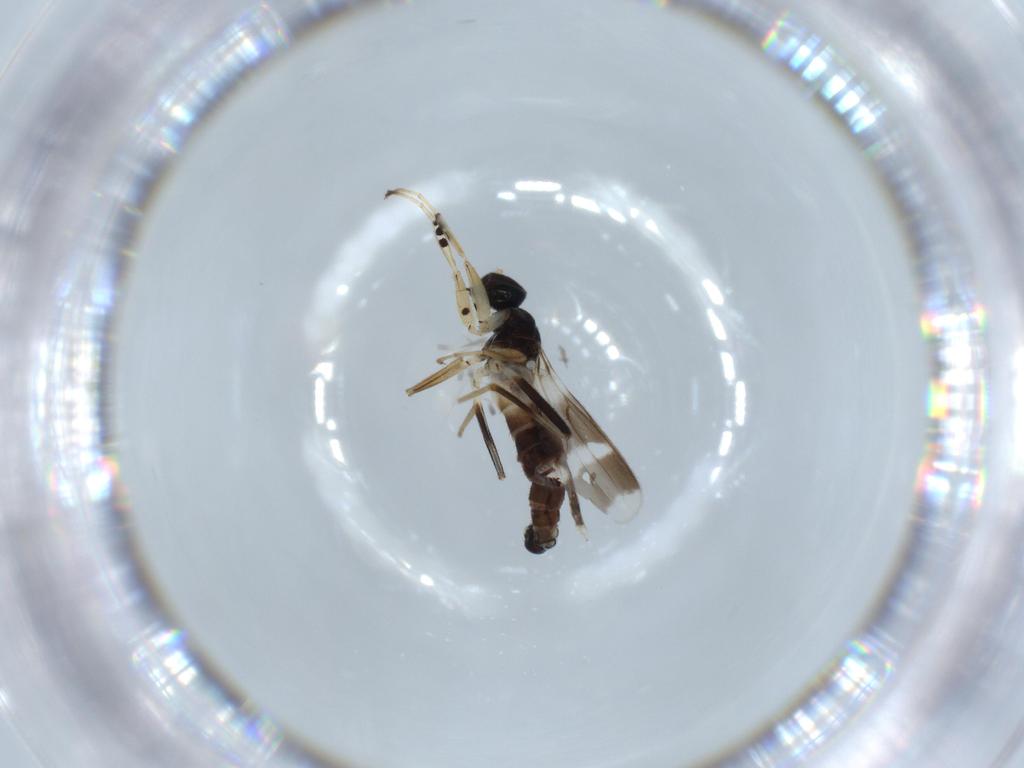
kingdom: Animalia
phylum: Arthropoda
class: Insecta
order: Diptera
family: Hybotidae
